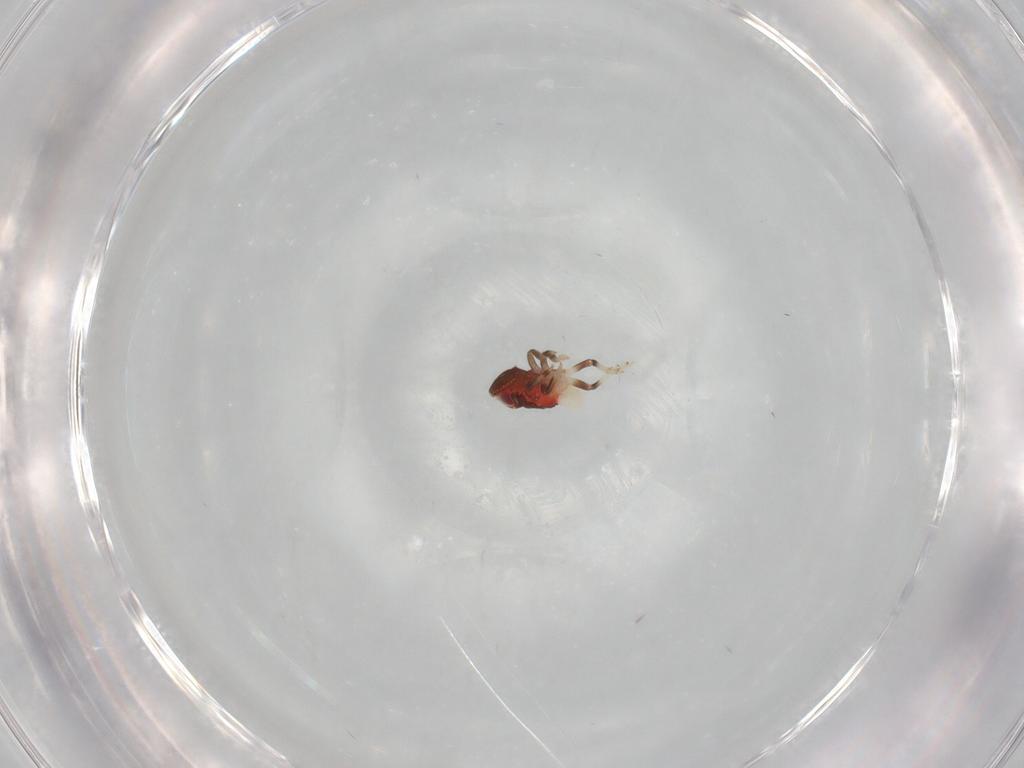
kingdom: Animalia
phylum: Arthropoda
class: Insecta
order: Hemiptera
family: Nogodinidae
